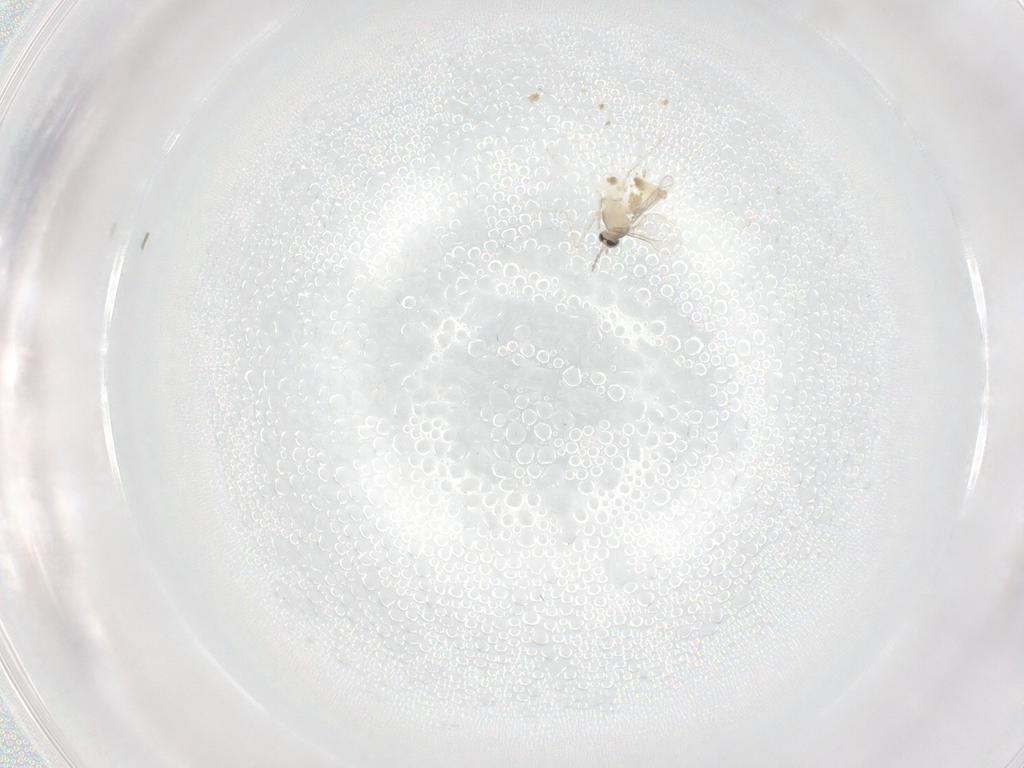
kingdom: Animalia
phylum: Arthropoda
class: Insecta
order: Diptera
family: Cecidomyiidae
